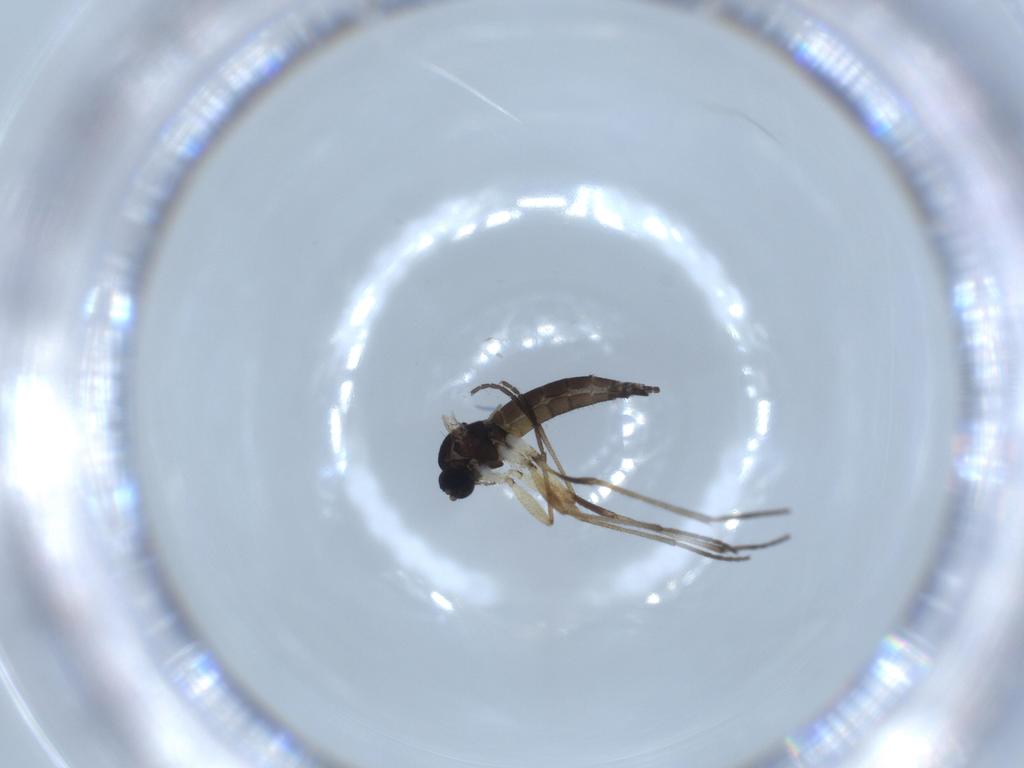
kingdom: Animalia
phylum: Arthropoda
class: Insecta
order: Diptera
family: Sciaridae
